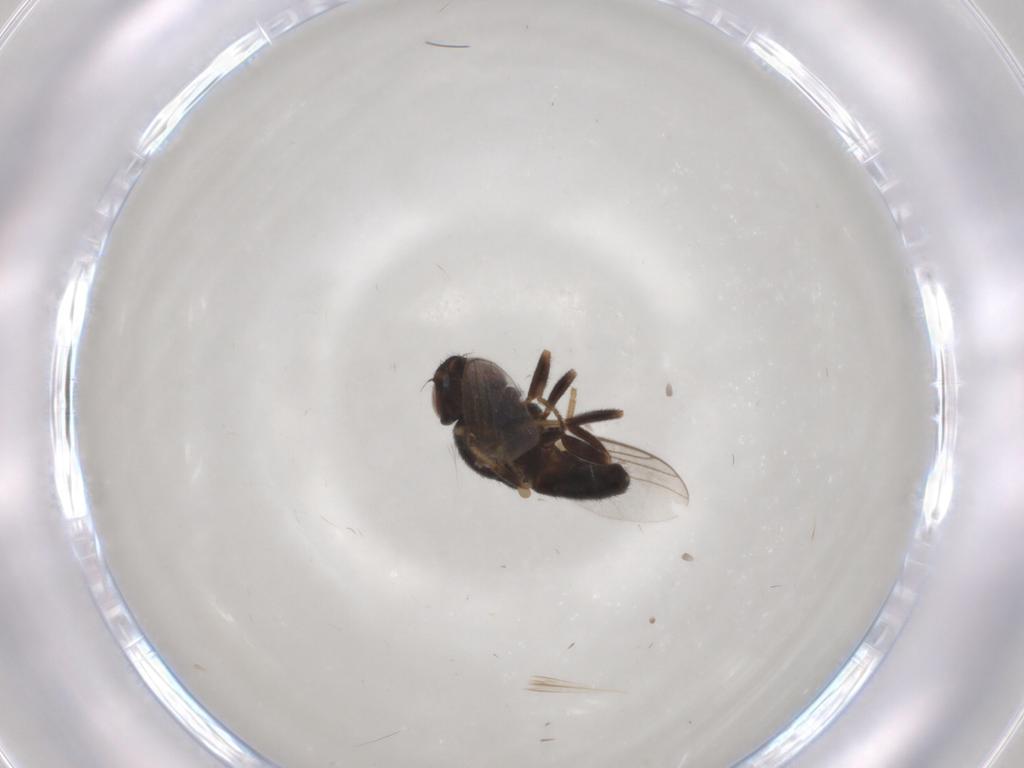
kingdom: Animalia
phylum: Arthropoda
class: Insecta
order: Diptera
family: Chloropidae
